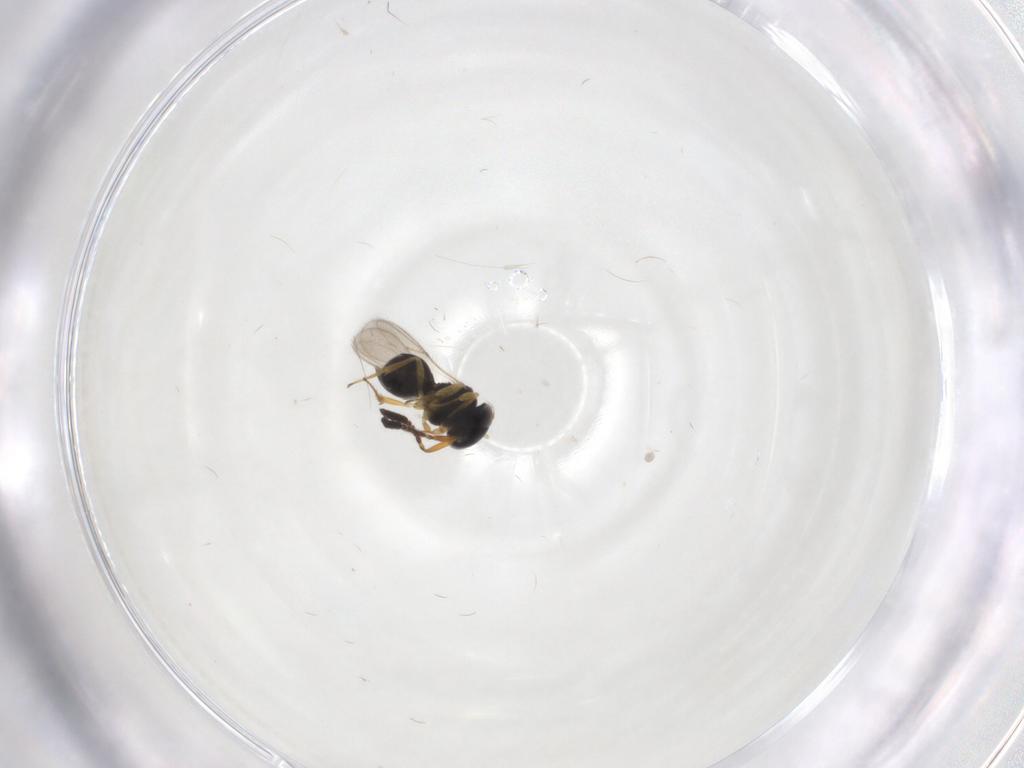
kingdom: Animalia
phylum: Arthropoda
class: Insecta
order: Hymenoptera
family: Scelionidae
